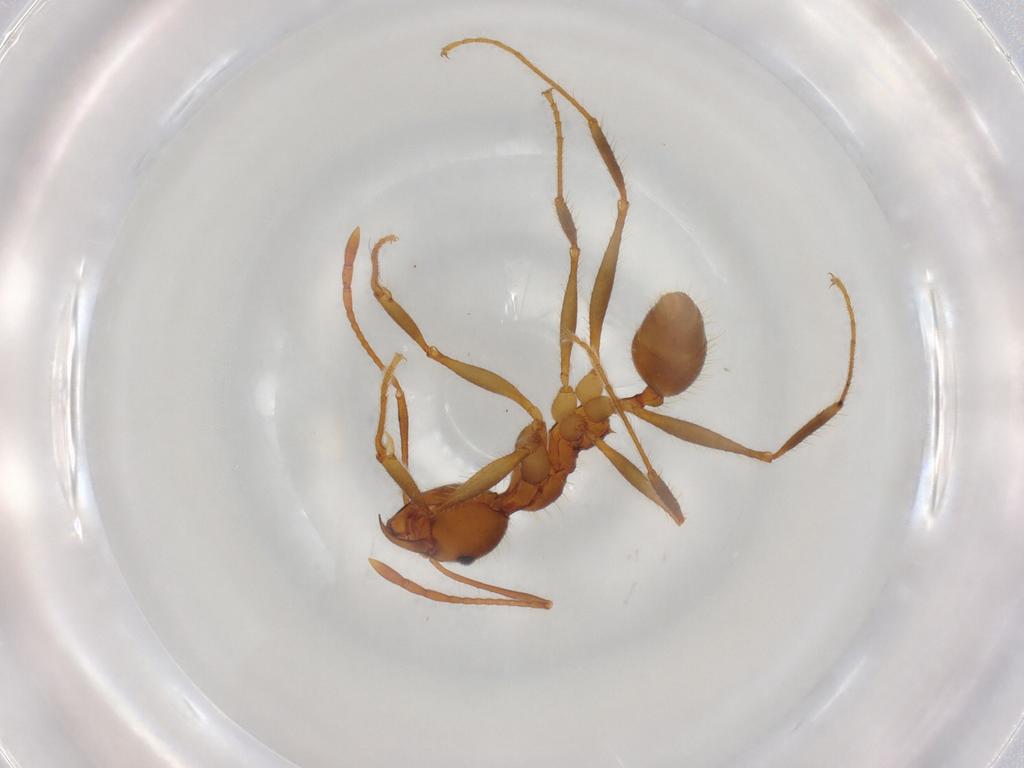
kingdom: Animalia
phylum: Arthropoda
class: Insecta
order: Hymenoptera
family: Formicidae
